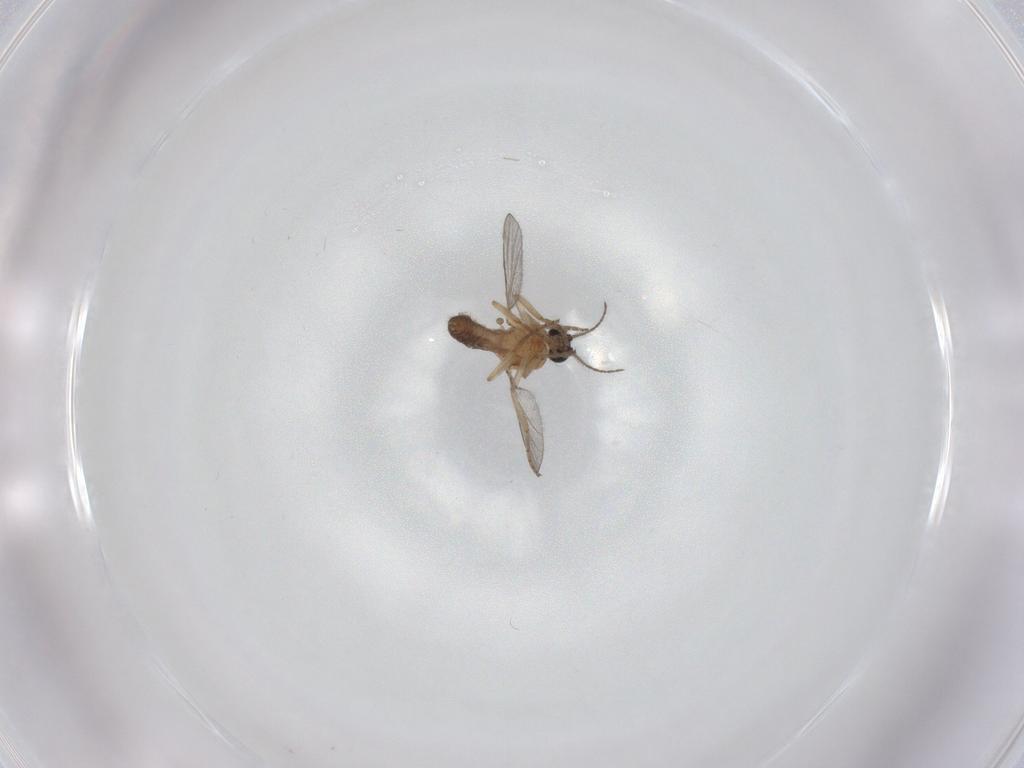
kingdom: Animalia
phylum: Arthropoda
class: Insecta
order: Diptera
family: Ceratopogonidae
